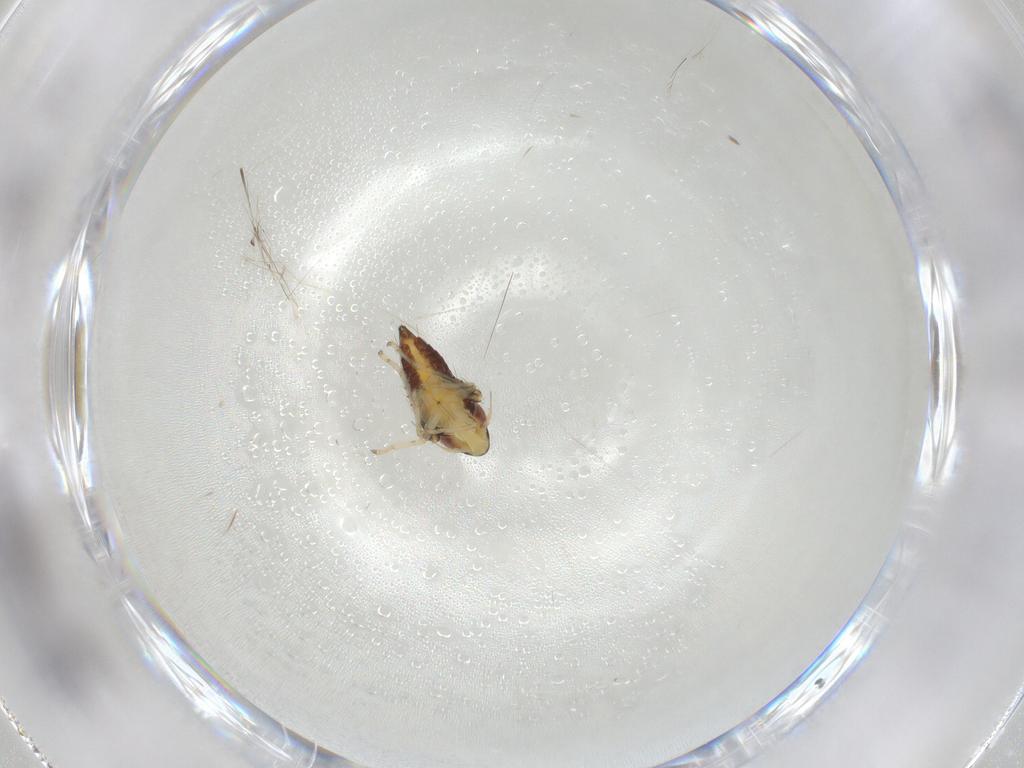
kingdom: Animalia
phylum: Arthropoda
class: Insecta
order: Hemiptera
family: Cicadellidae
